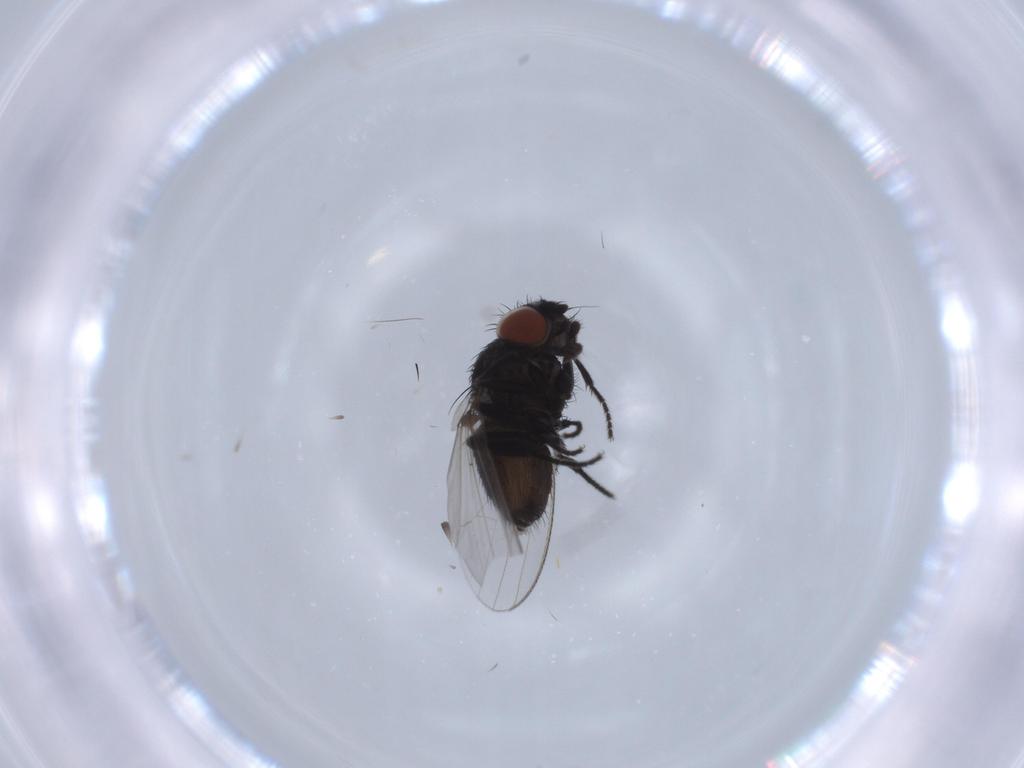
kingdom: Animalia
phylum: Arthropoda
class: Insecta
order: Diptera
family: Milichiidae
